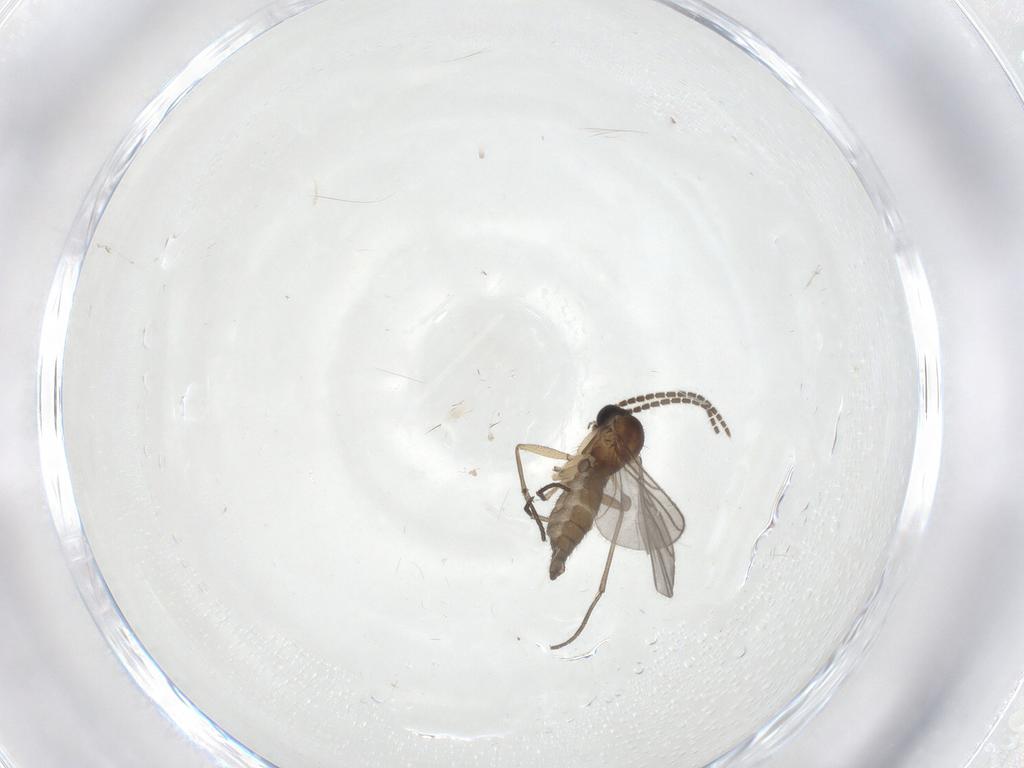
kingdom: Animalia
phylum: Arthropoda
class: Insecta
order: Diptera
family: Sciaridae
